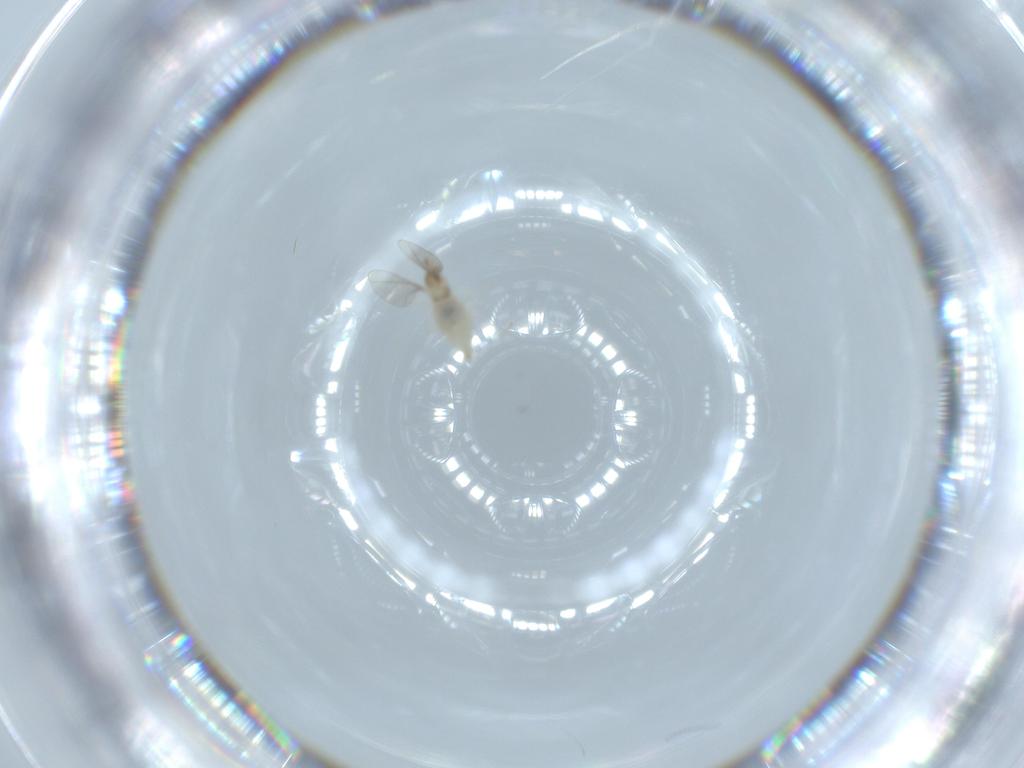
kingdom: Animalia
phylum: Arthropoda
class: Insecta
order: Diptera
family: Cecidomyiidae
